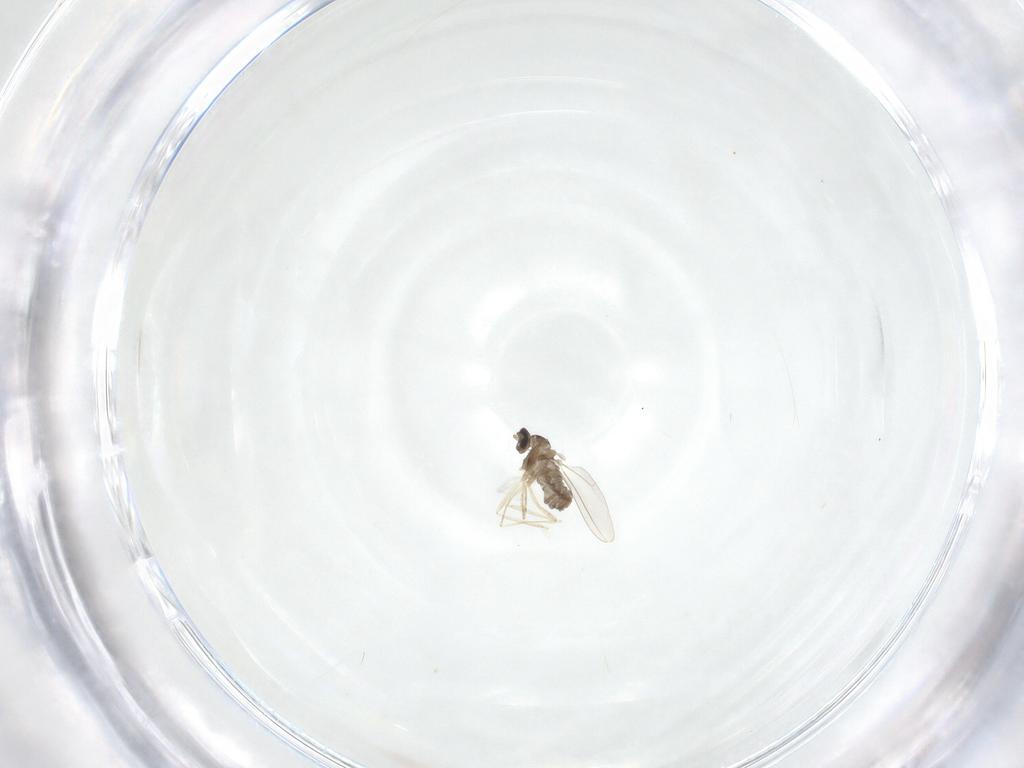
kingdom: Animalia
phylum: Arthropoda
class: Insecta
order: Diptera
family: Cecidomyiidae
